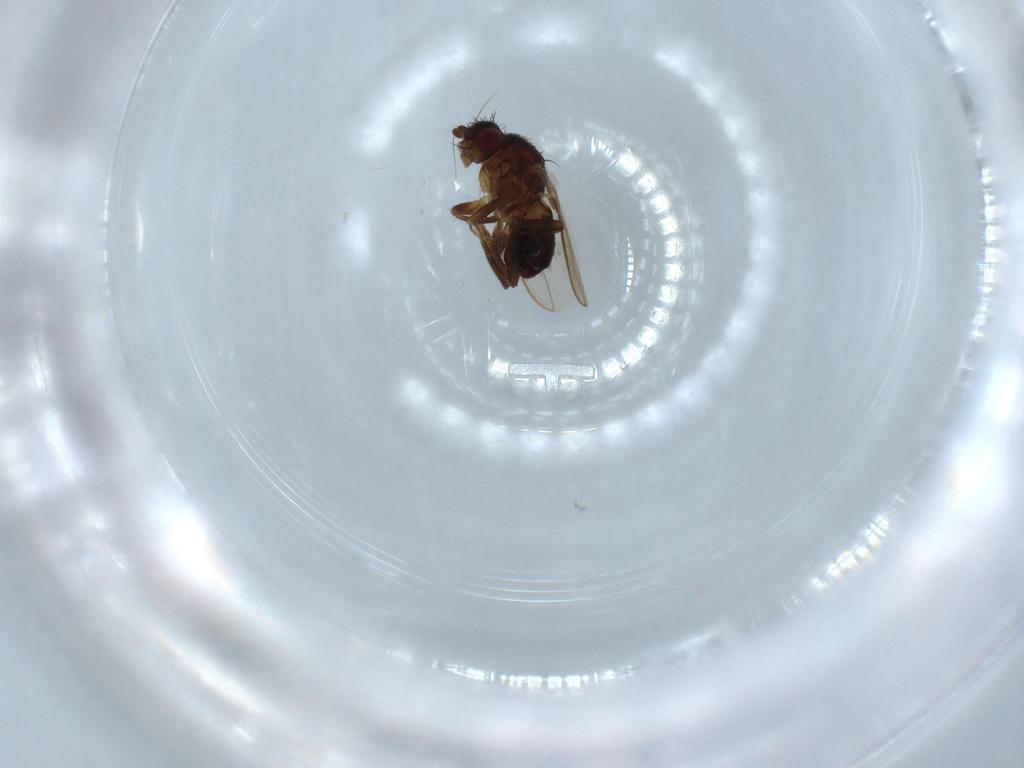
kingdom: Animalia
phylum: Arthropoda
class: Insecta
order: Diptera
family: Sphaeroceridae
